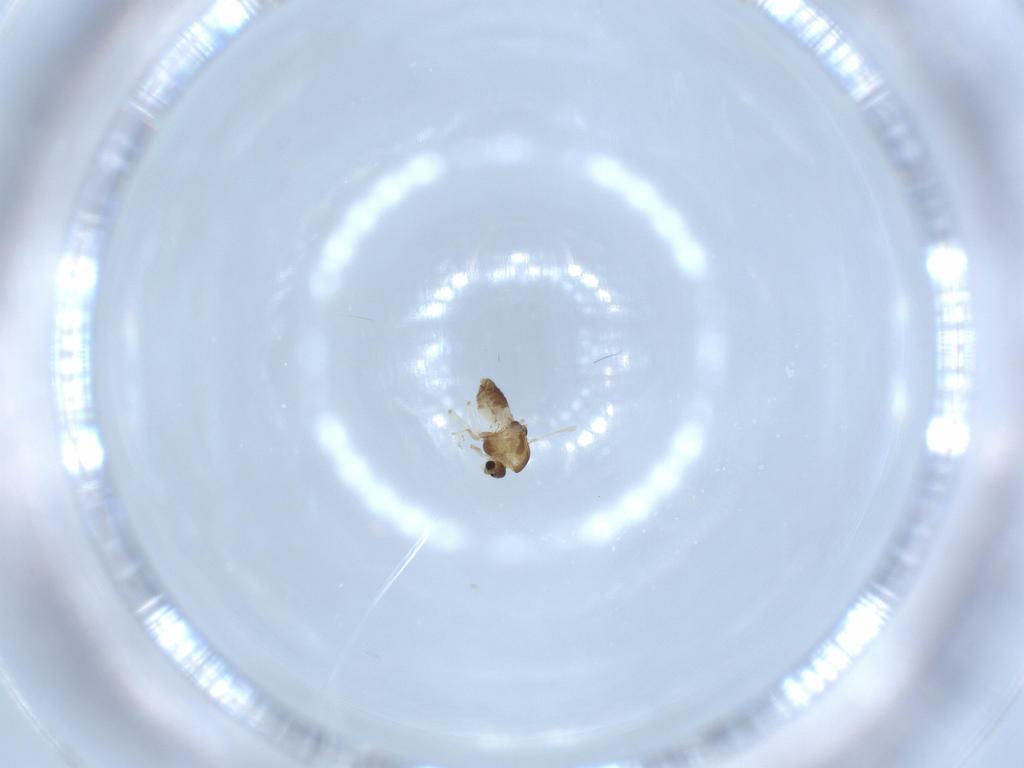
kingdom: Animalia
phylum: Arthropoda
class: Insecta
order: Diptera
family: Chironomidae
